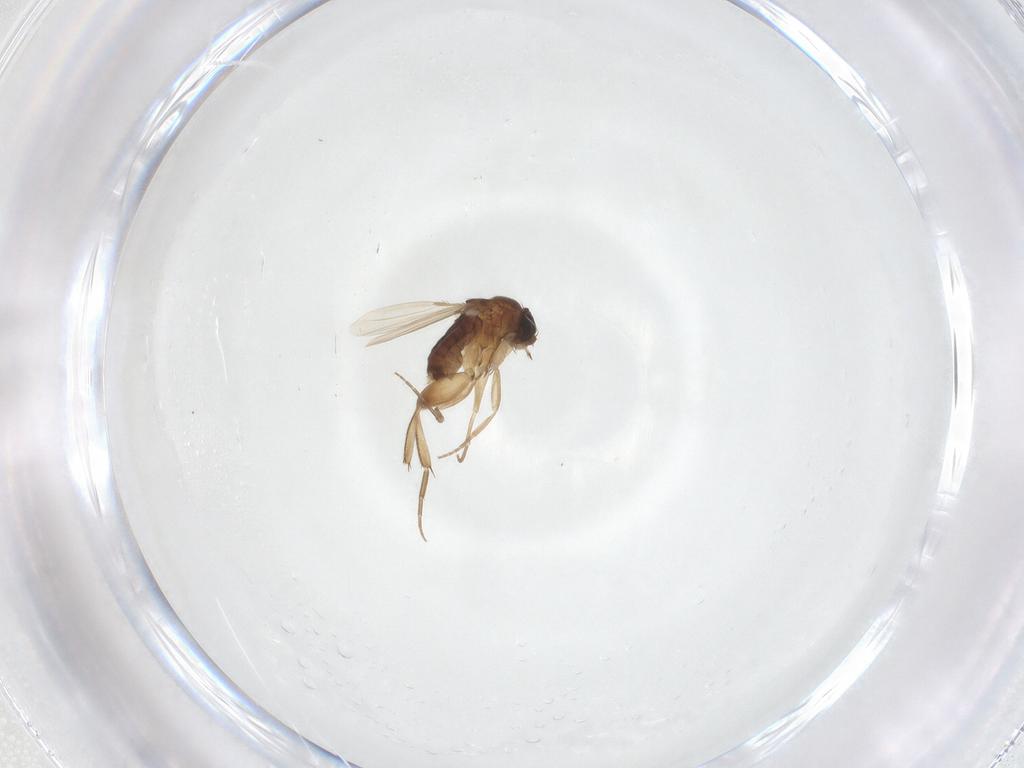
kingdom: Animalia
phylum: Arthropoda
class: Insecta
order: Diptera
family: Phoridae
